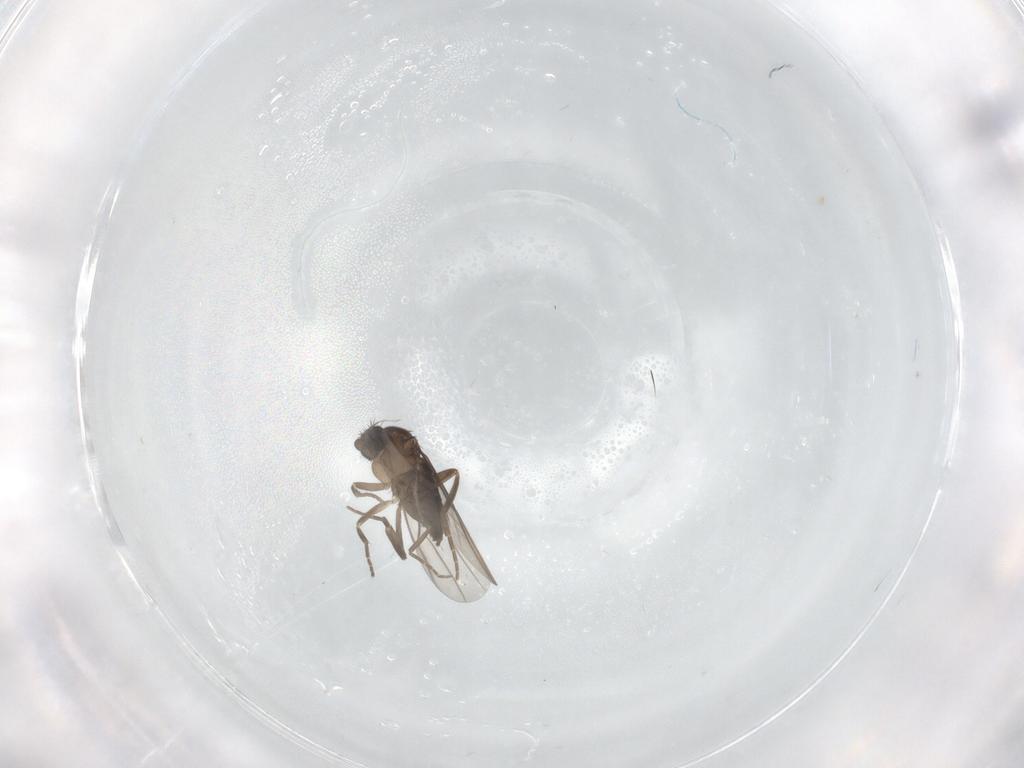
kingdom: Animalia
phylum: Arthropoda
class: Insecta
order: Diptera
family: Phoridae
